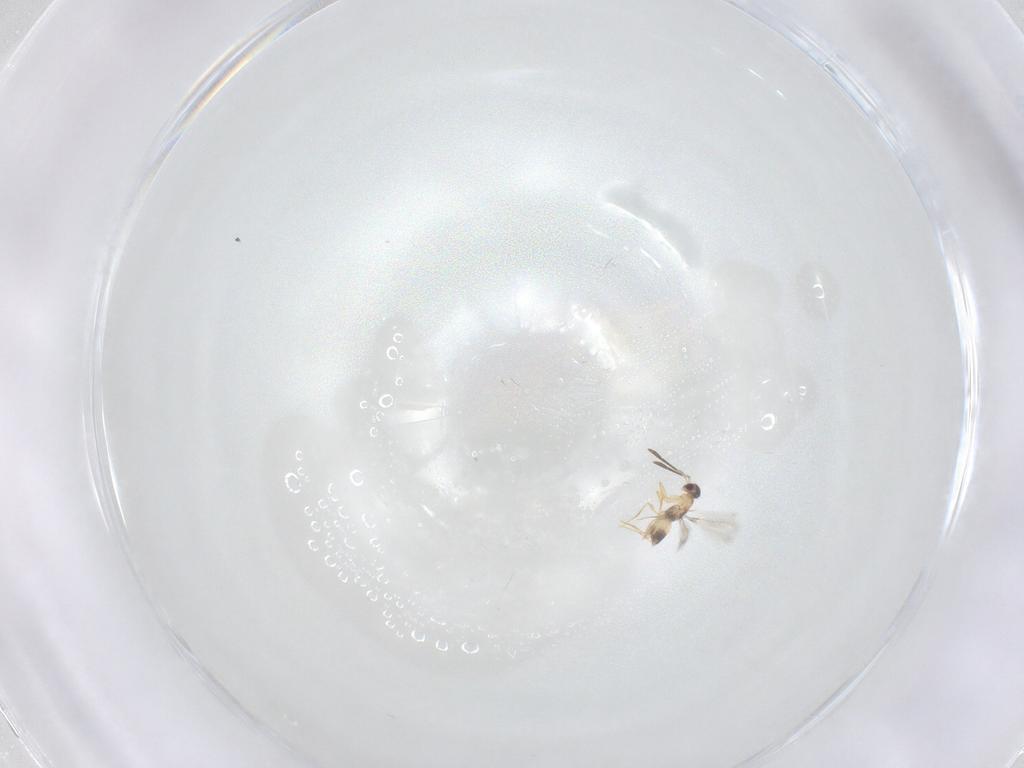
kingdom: Animalia
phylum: Arthropoda
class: Insecta
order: Hymenoptera
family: Mymaridae
